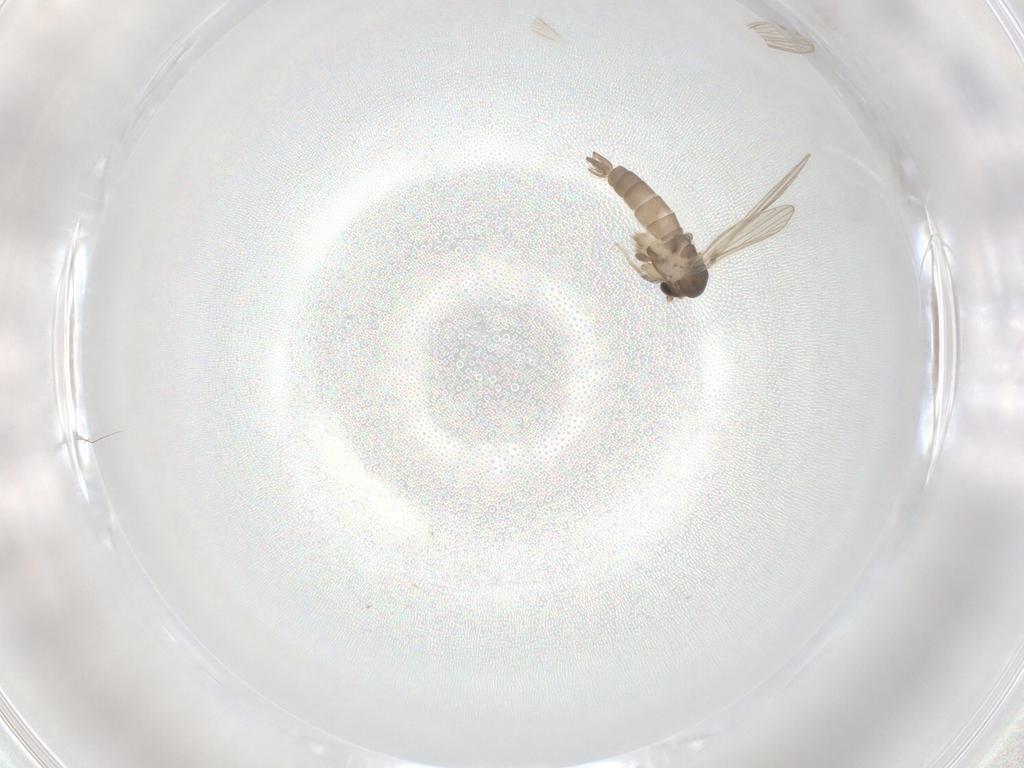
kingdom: Animalia
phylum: Arthropoda
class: Insecta
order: Diptera
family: Psychodidae
